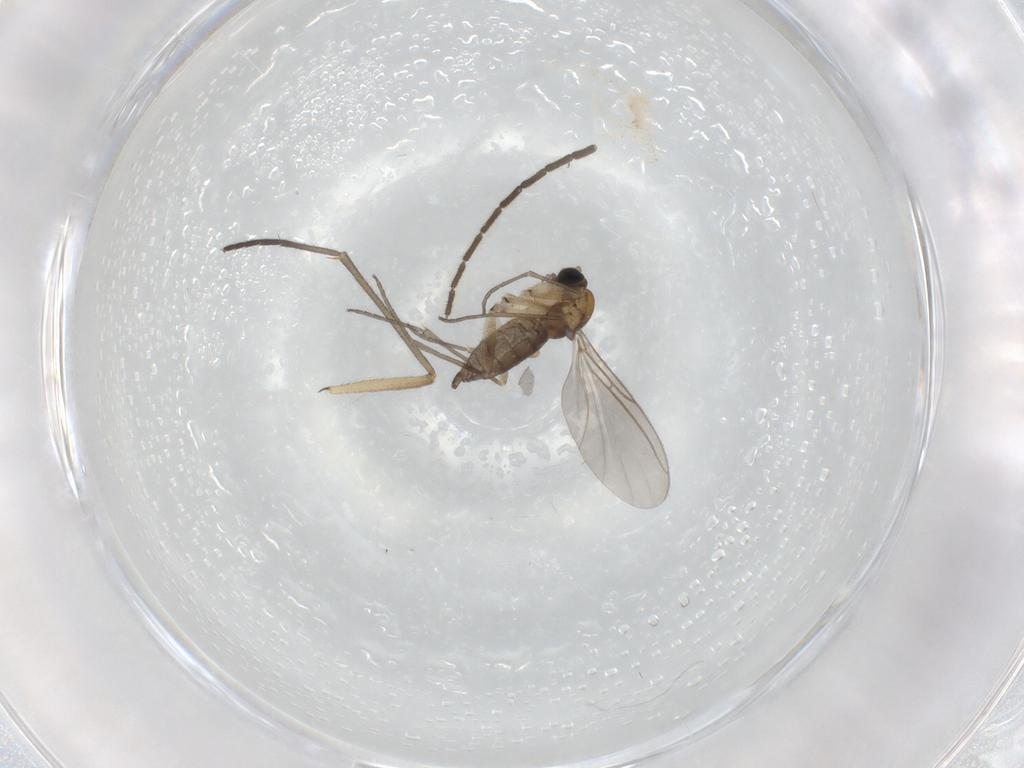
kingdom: Animalia
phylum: Arthropoda
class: Insecta
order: Diptera
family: Sciaridae
